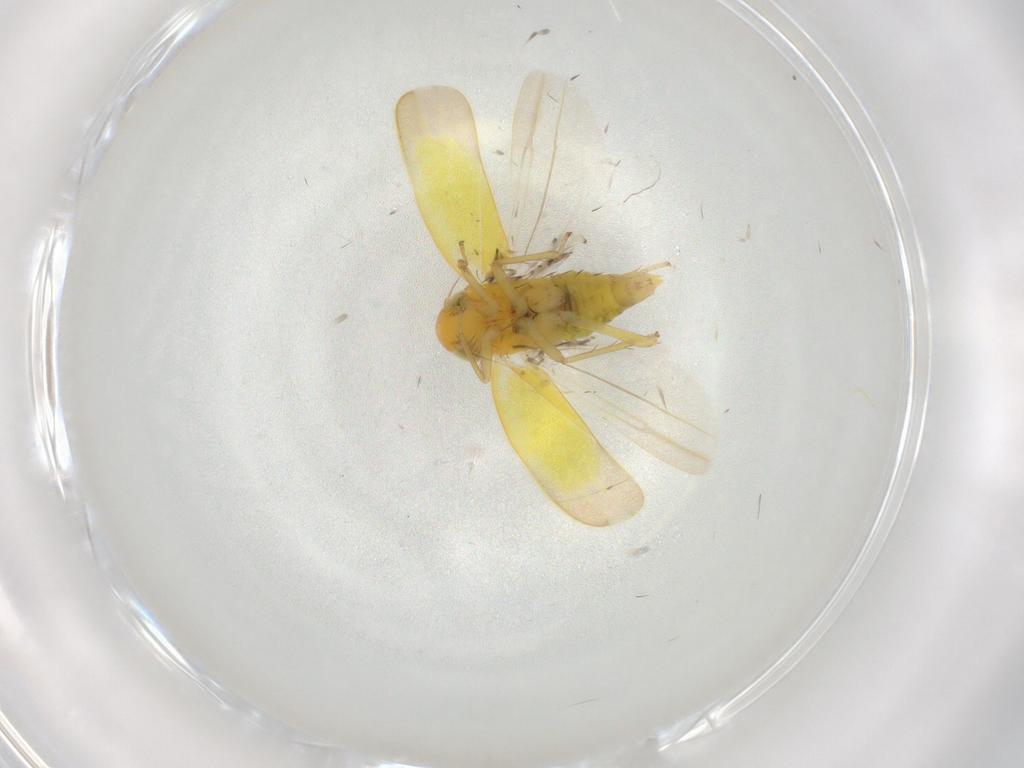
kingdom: Animalia
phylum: Arthropoda
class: Insecta
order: Hemiptera
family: Cicadellidae
